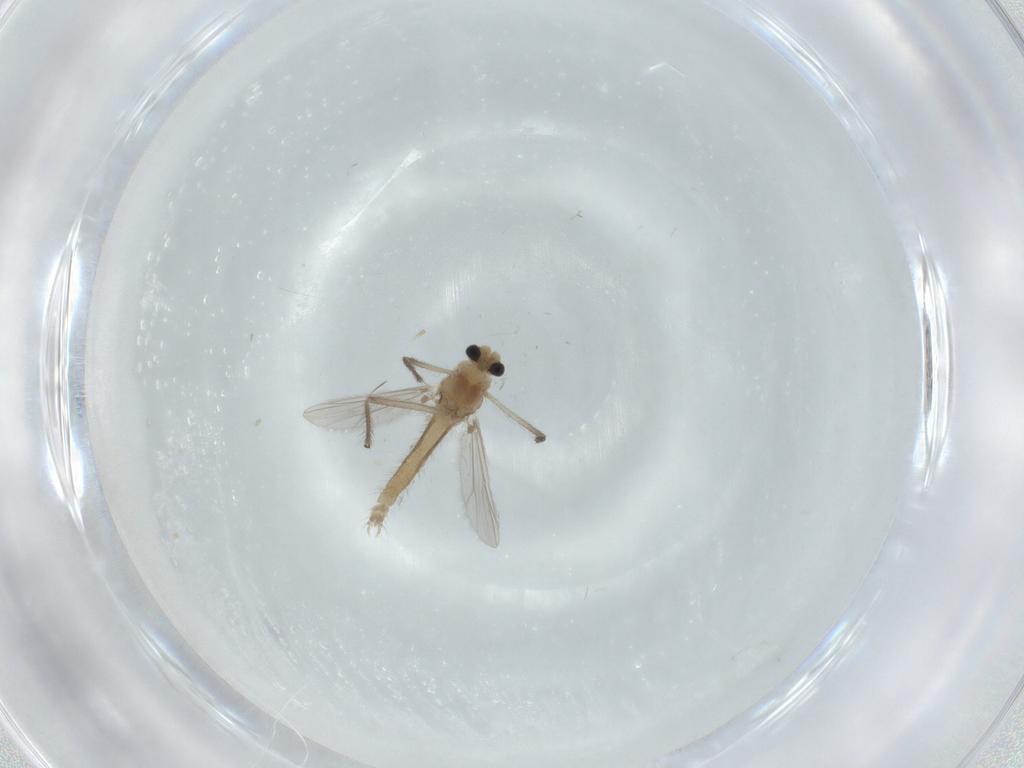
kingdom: Animalia
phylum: Arthropoda
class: Insecta
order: Diptera
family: Chironomidae
